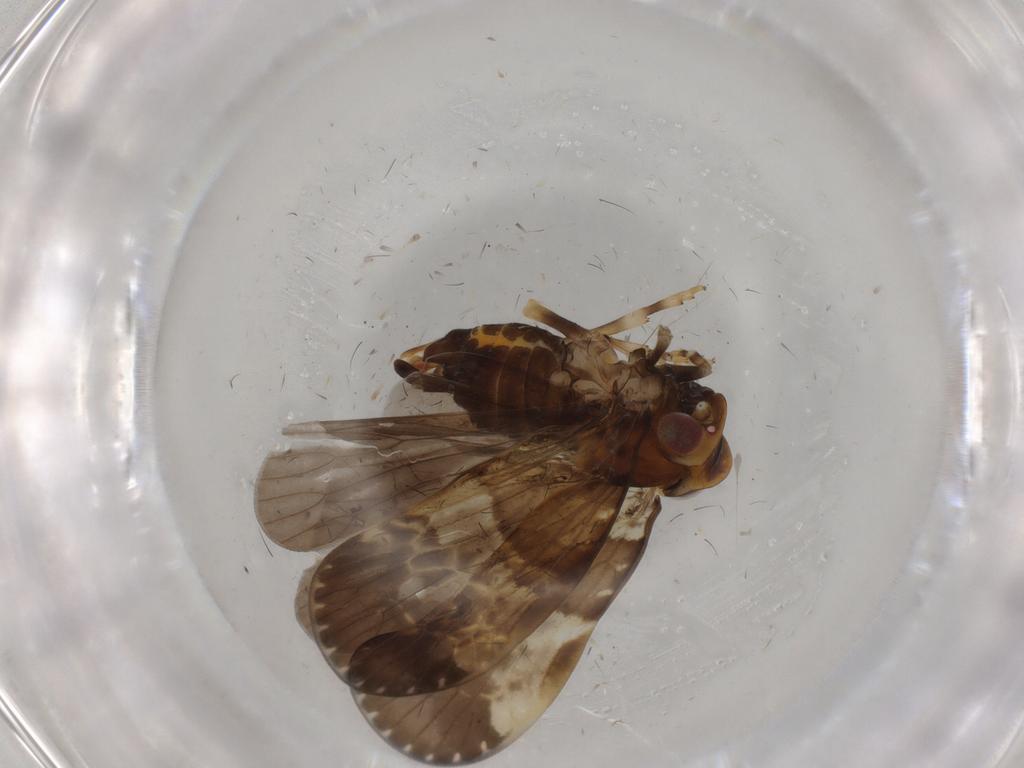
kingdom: Animalia
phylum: Arthropoda
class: Insecta
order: Hemiptera
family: Cixiidae
